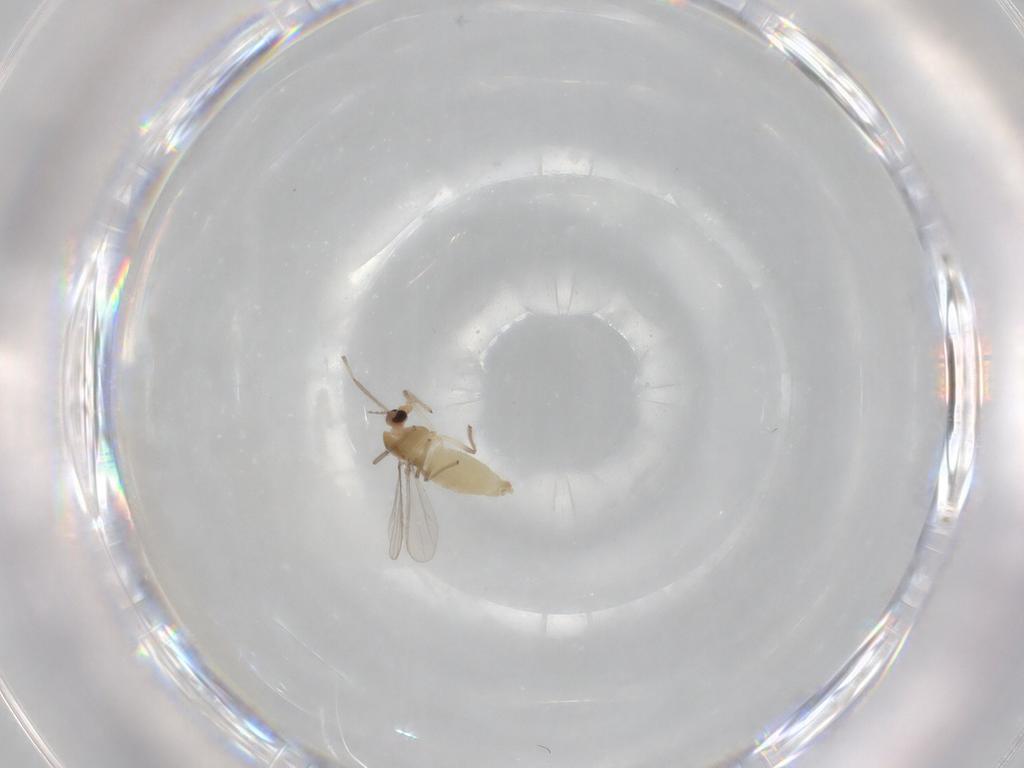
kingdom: Animalia
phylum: Arthropoda
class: Insecta
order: Diptera
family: Chironomidae
